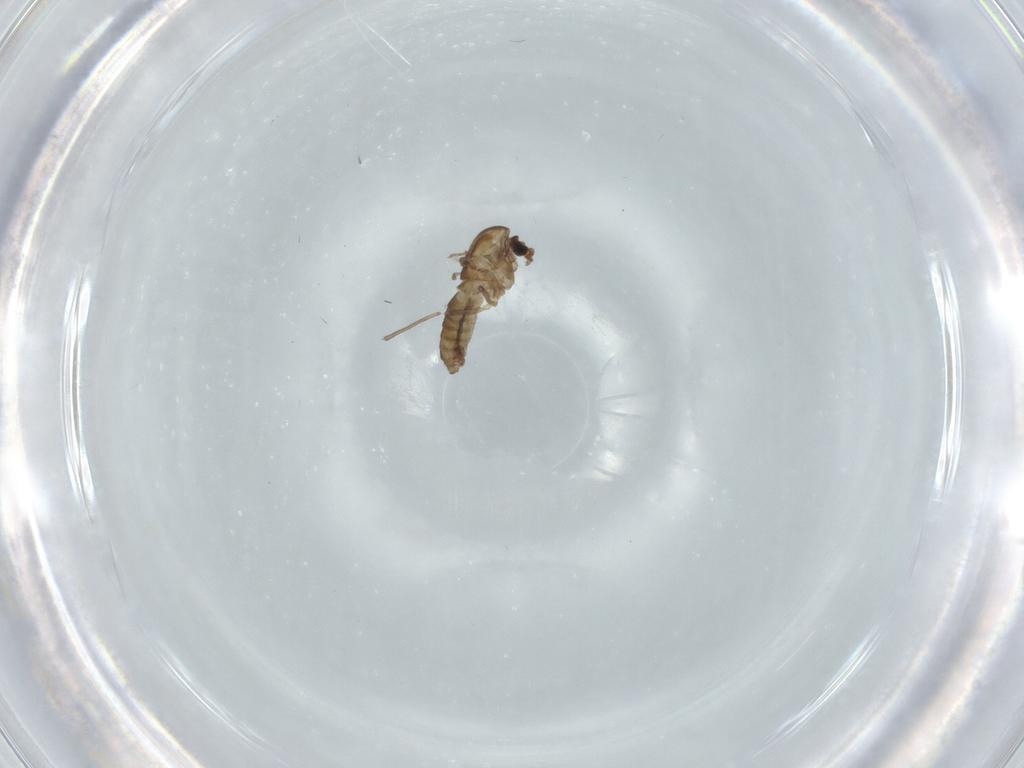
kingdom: Animalia
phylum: Arthropoda
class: Insecta
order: Diptera
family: Chironomidae
